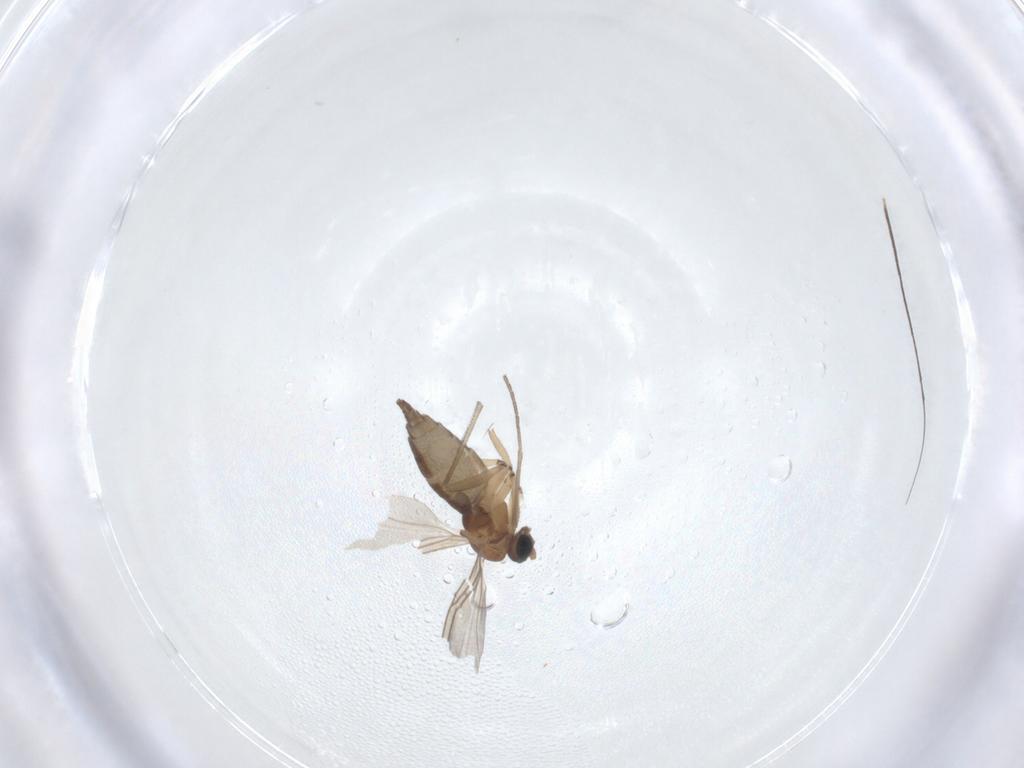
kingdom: Animalia
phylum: Arthropoda
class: Insecta
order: Diptera
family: Sciaridae
